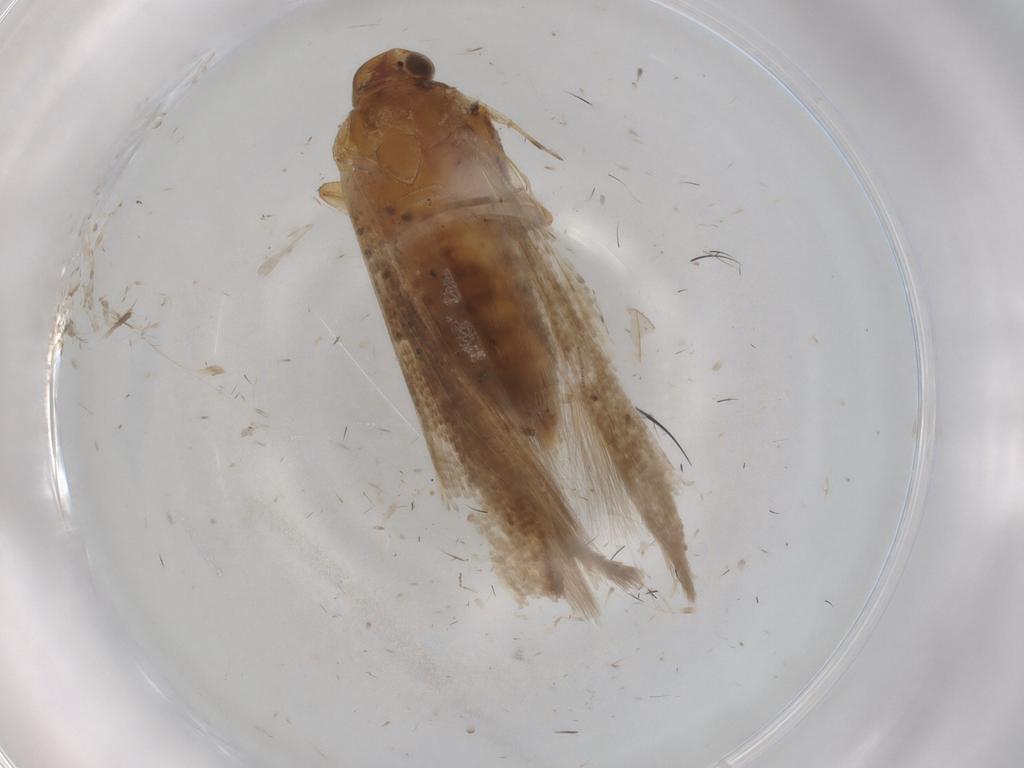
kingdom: Animalia
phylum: Arthropoda
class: Insecta
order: Lepidoptera
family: Gelechiidae
